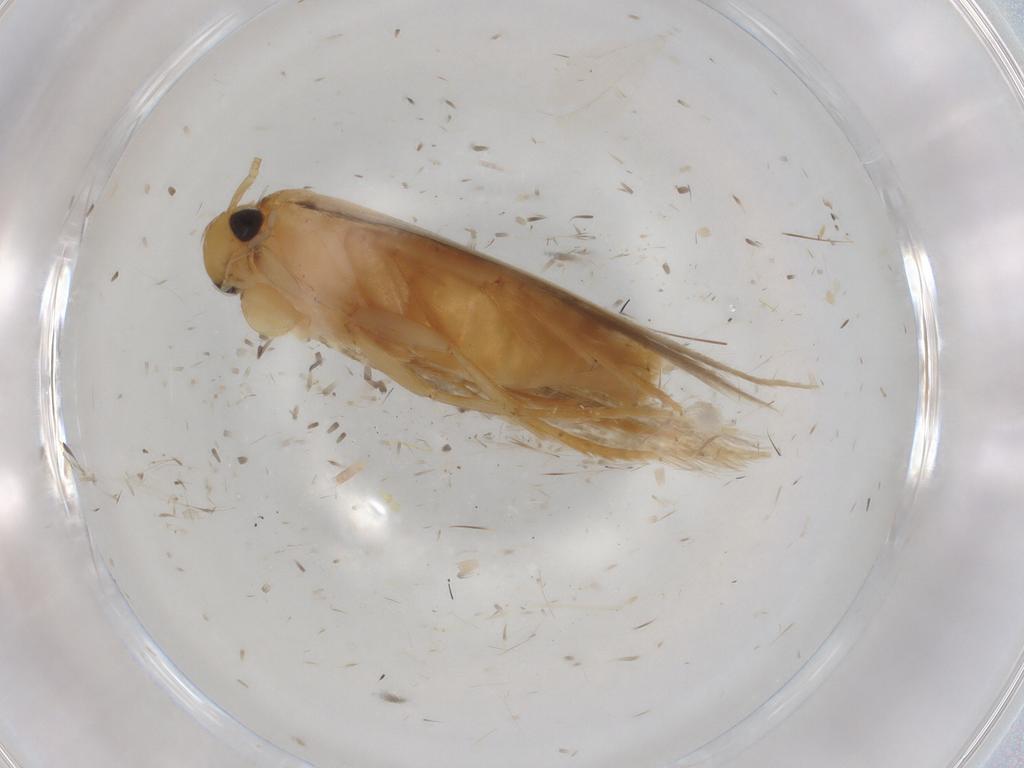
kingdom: Animalia
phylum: Arthropoda
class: Insecta
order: Lepidoptera
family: Tineidae
